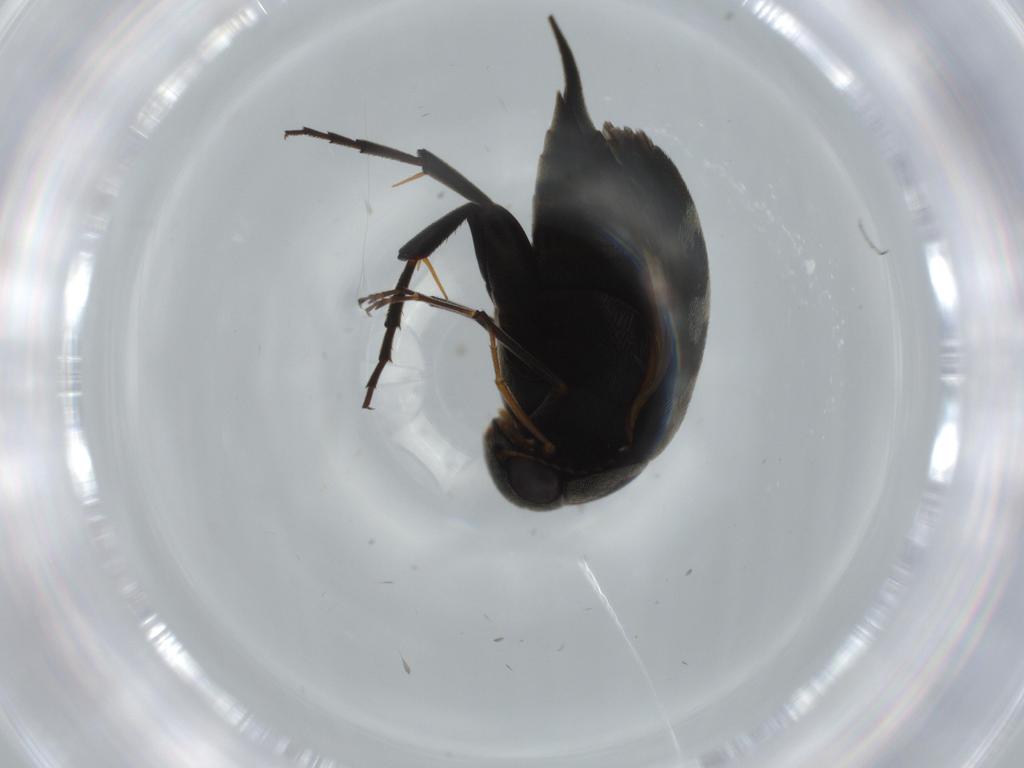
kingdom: Animalia
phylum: Arthropoda
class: Insecta
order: Coleoptera
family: Mordellidae
